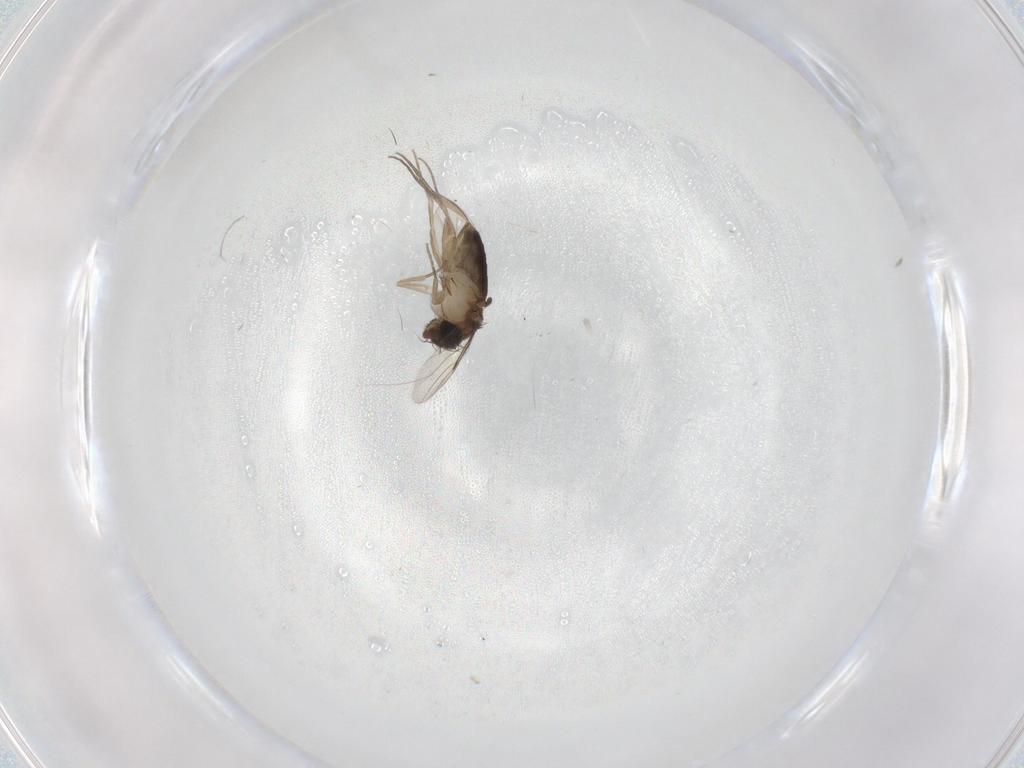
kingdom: Animalia
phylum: Arthropoda
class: Insecta
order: Diptera
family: Phoridae
